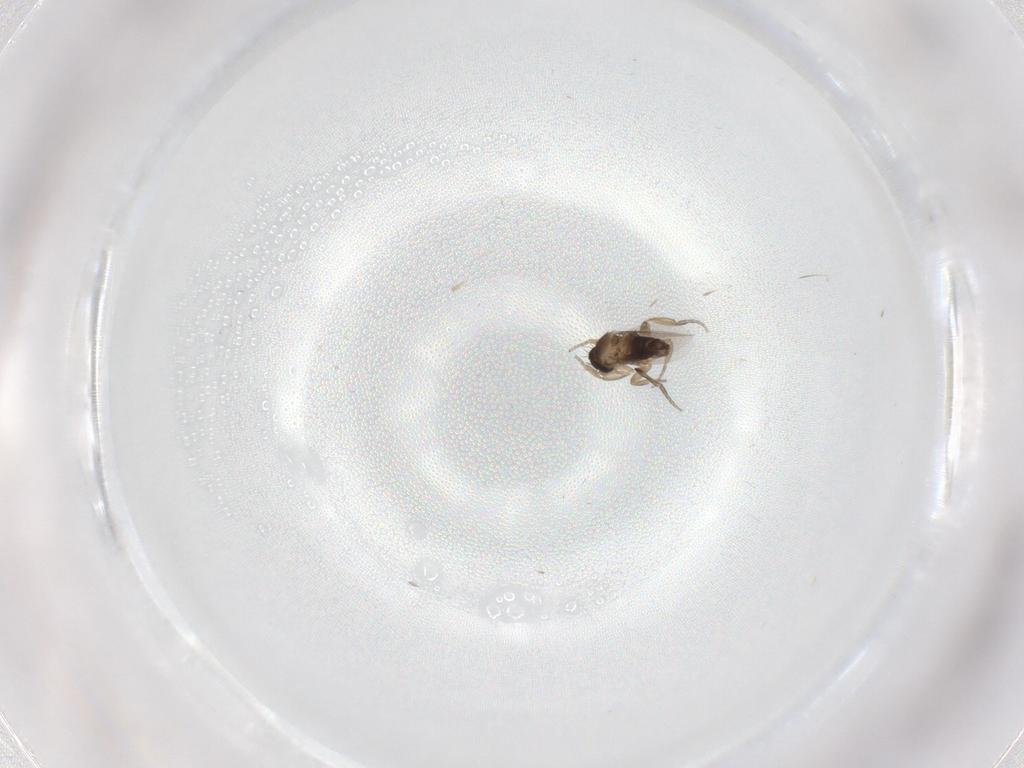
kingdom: Animalia
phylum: Arthropoda
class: Insecta
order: Diptera
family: Phoridae
